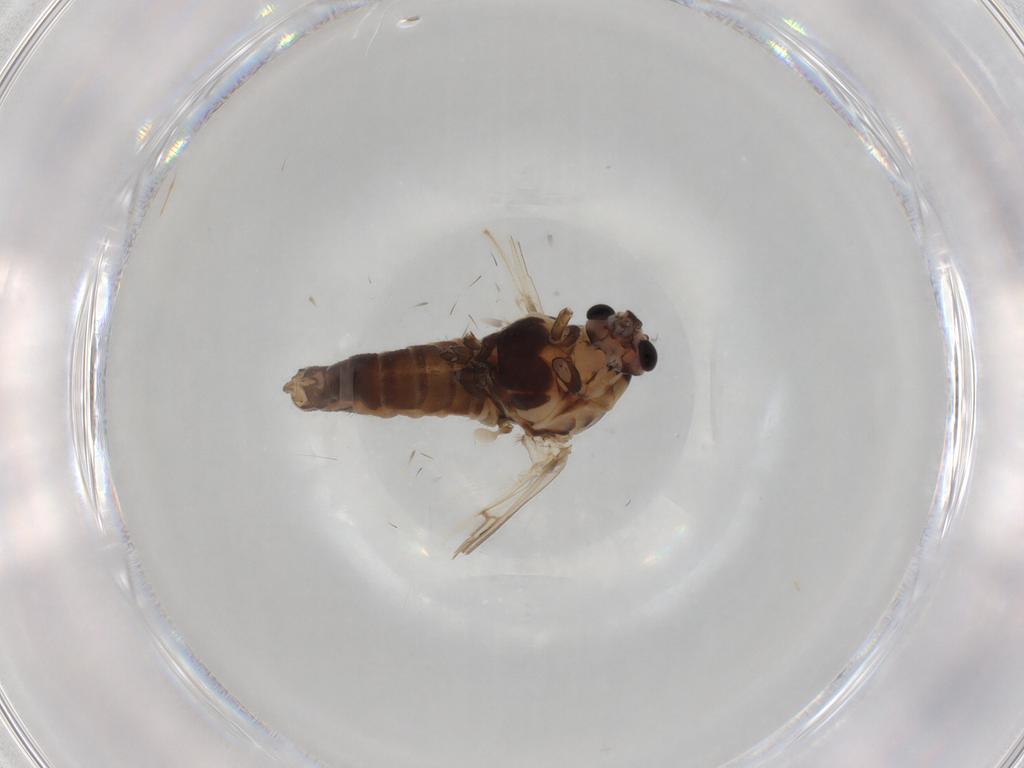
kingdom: Animalia
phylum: Arthropoda
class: Insecta
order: Diptera
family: Chironomidae
